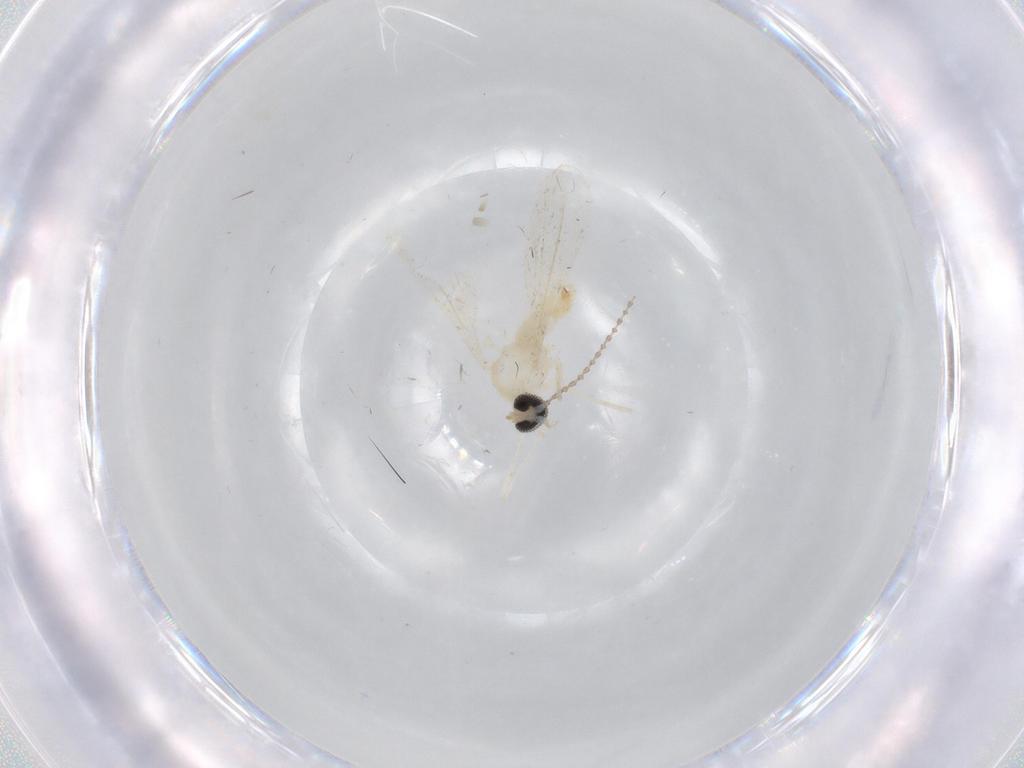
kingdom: Animalia
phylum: Arthropoda
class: Insecta
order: Diptera
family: Cecidomyiidae
